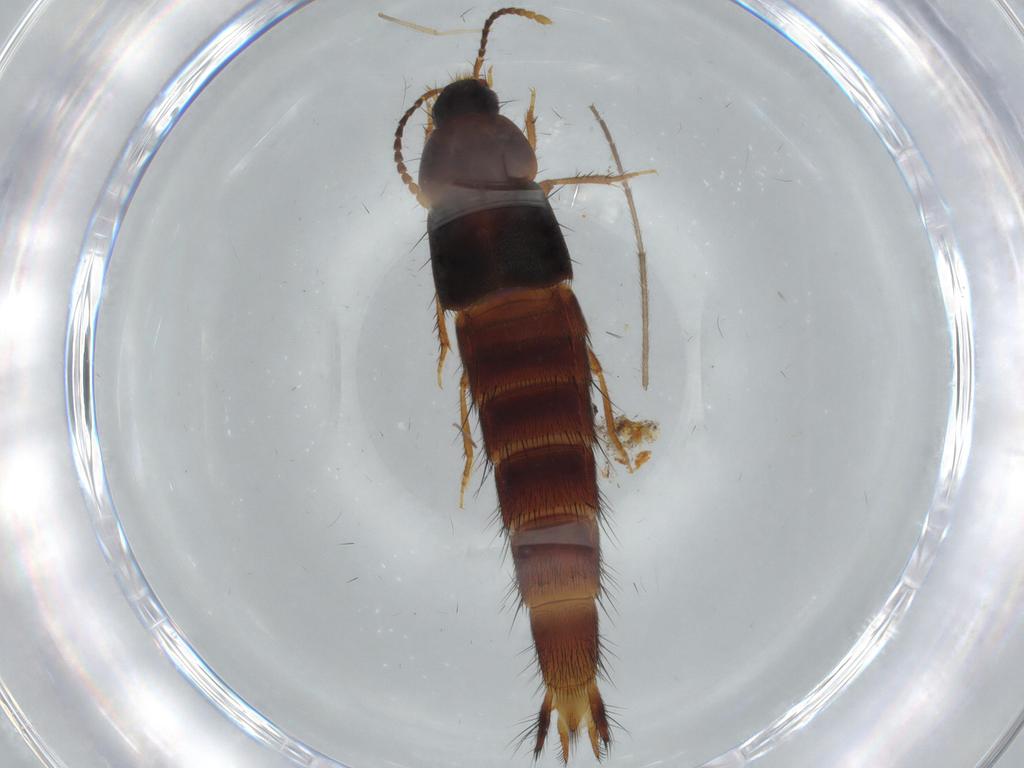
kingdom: Animalia
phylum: Arthropoda
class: Insecta
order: Coleoptera
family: Staphylinidae
